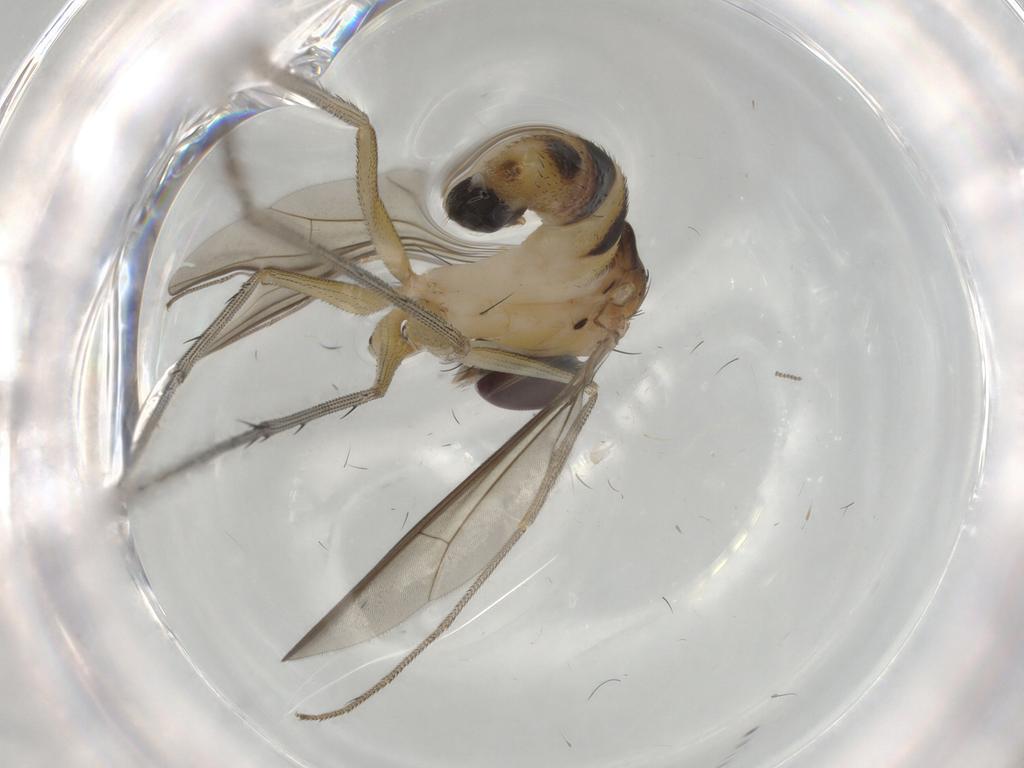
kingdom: Animalia
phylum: Arthropoda
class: Insecta
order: Diptera
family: Cecidomyiidae
